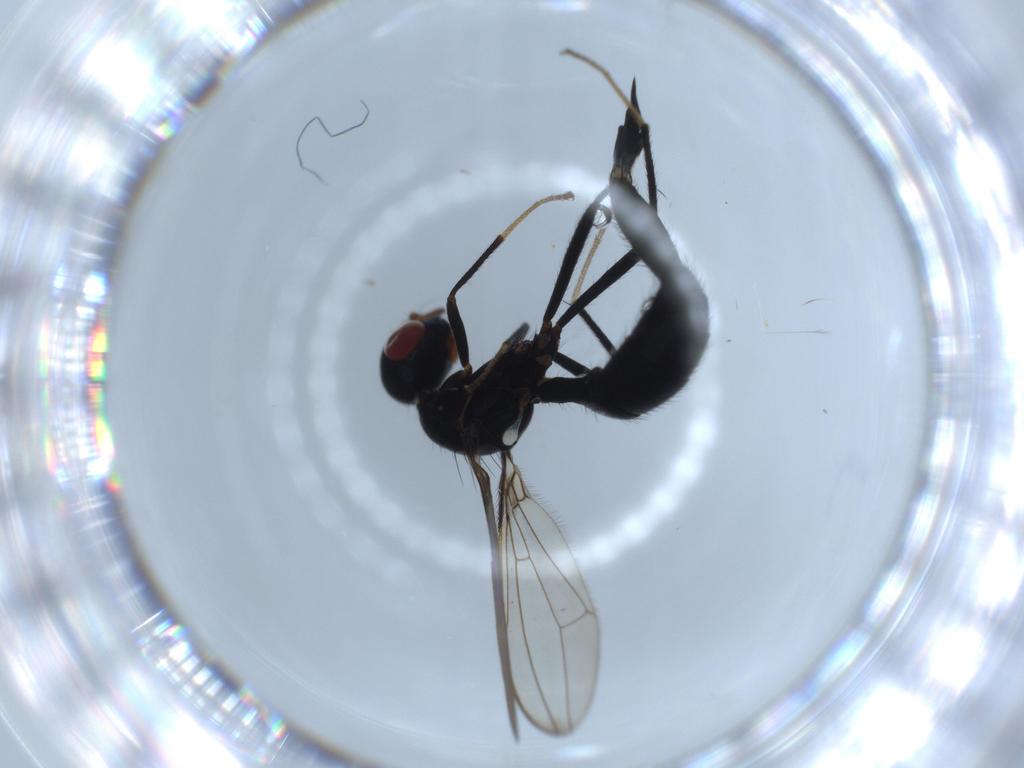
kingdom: Animalia
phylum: Arthropoda
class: Insecta
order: Diptera
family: Richardiidae
